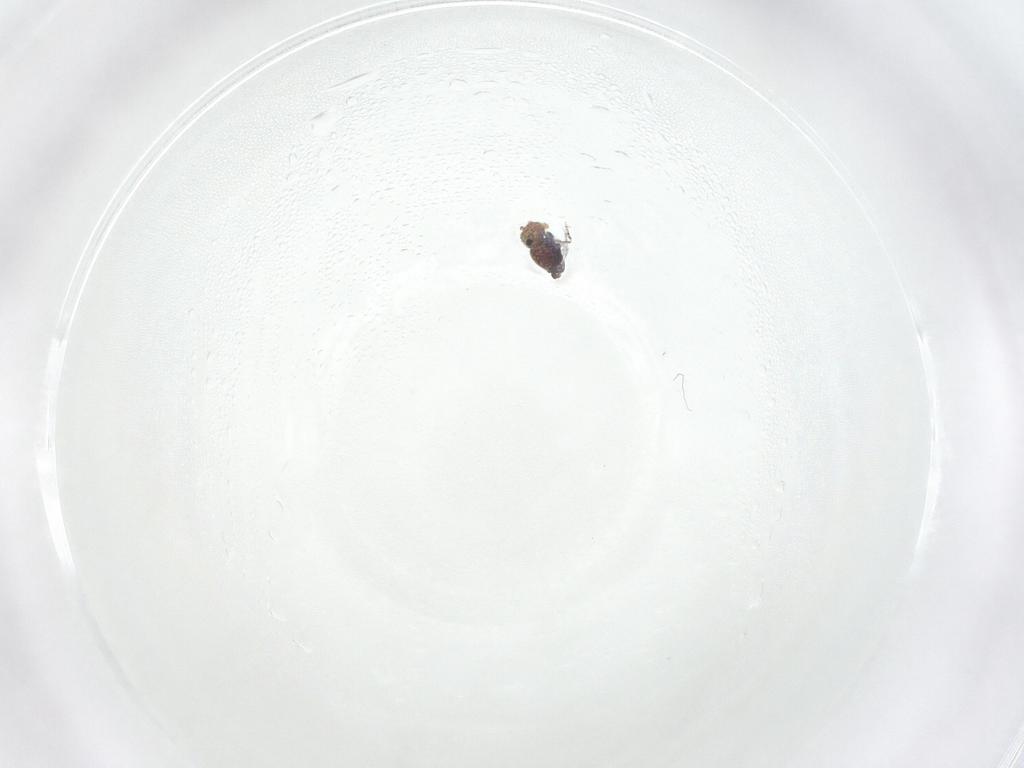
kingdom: Animalia
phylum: Arthropoda
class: Collembola
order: Symphypleona
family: Bourletiellidae
